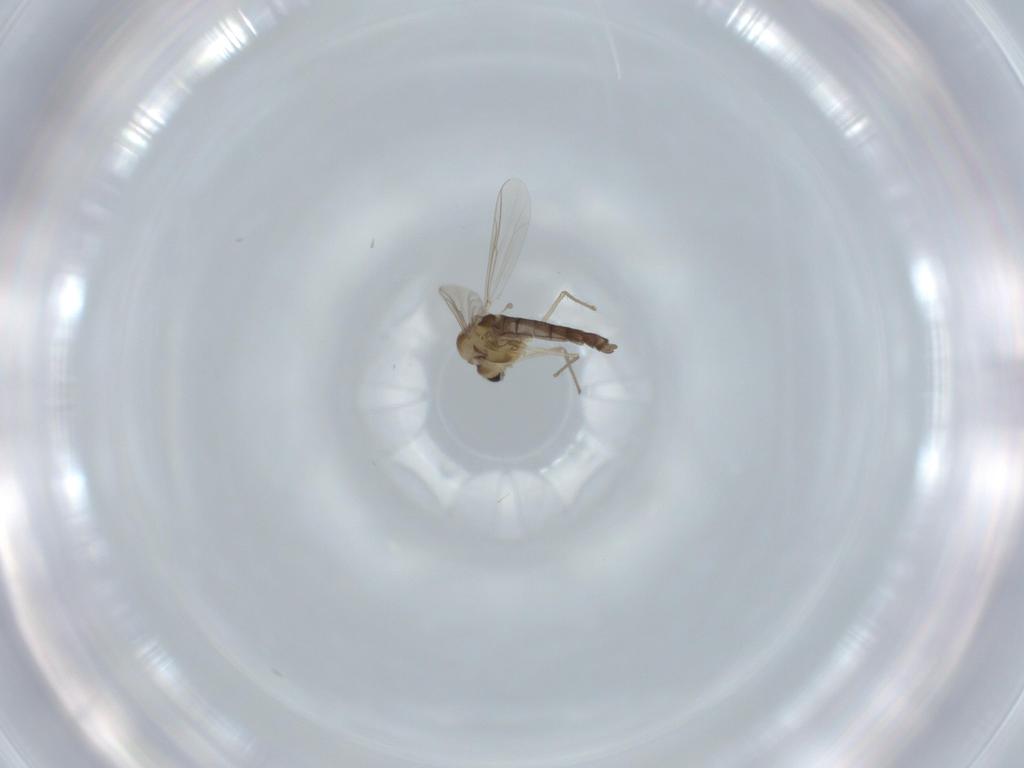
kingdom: Animalia
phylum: Arthropoda
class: Insecta
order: Diptera
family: Chironomidae
